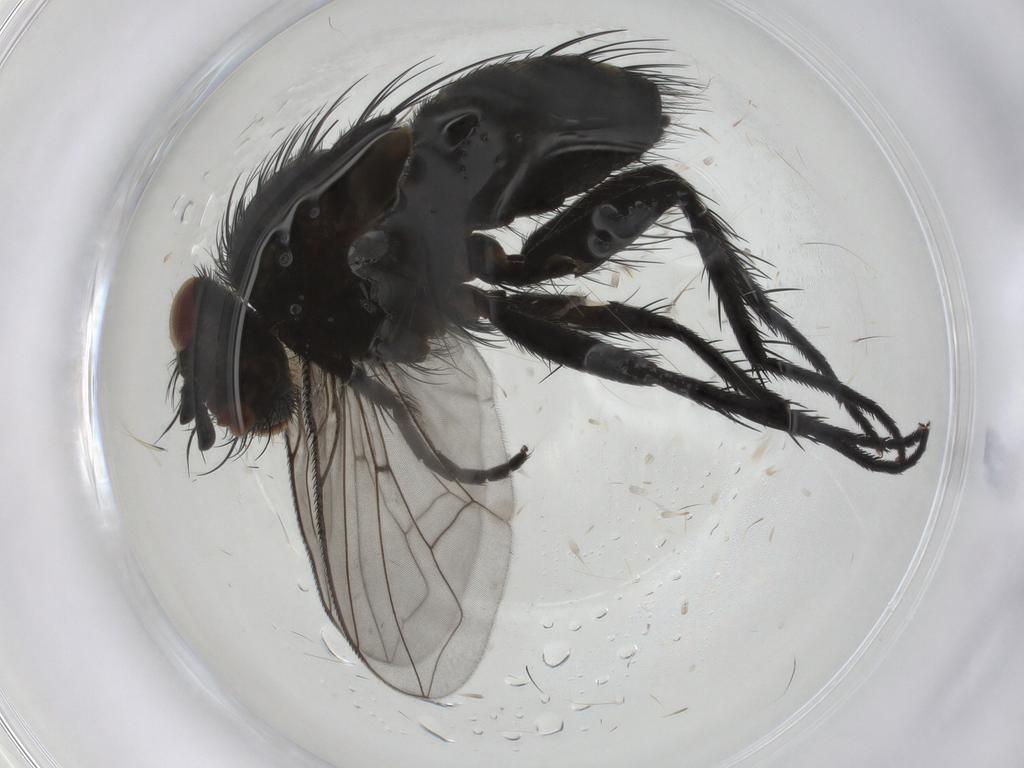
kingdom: Animalia
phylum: Arthropoda
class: Insecta
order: Diptera
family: Tachinidae
